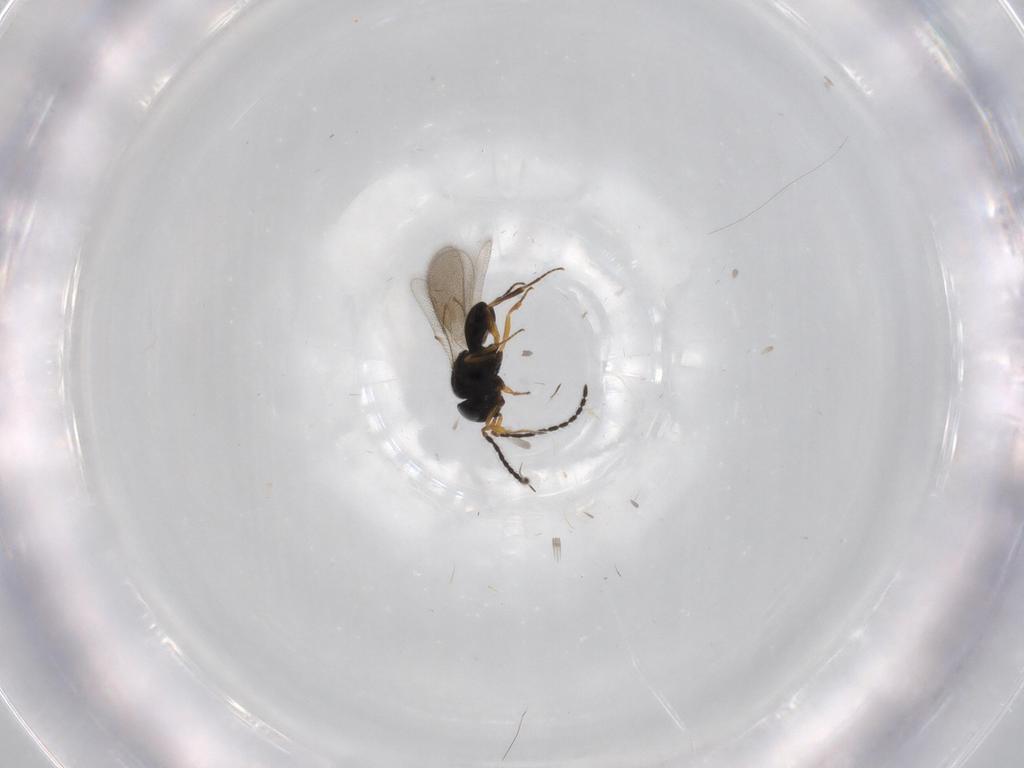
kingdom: Animalia
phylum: Arthropoda
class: Insecta
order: Hymenoptera
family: Scelionidae
